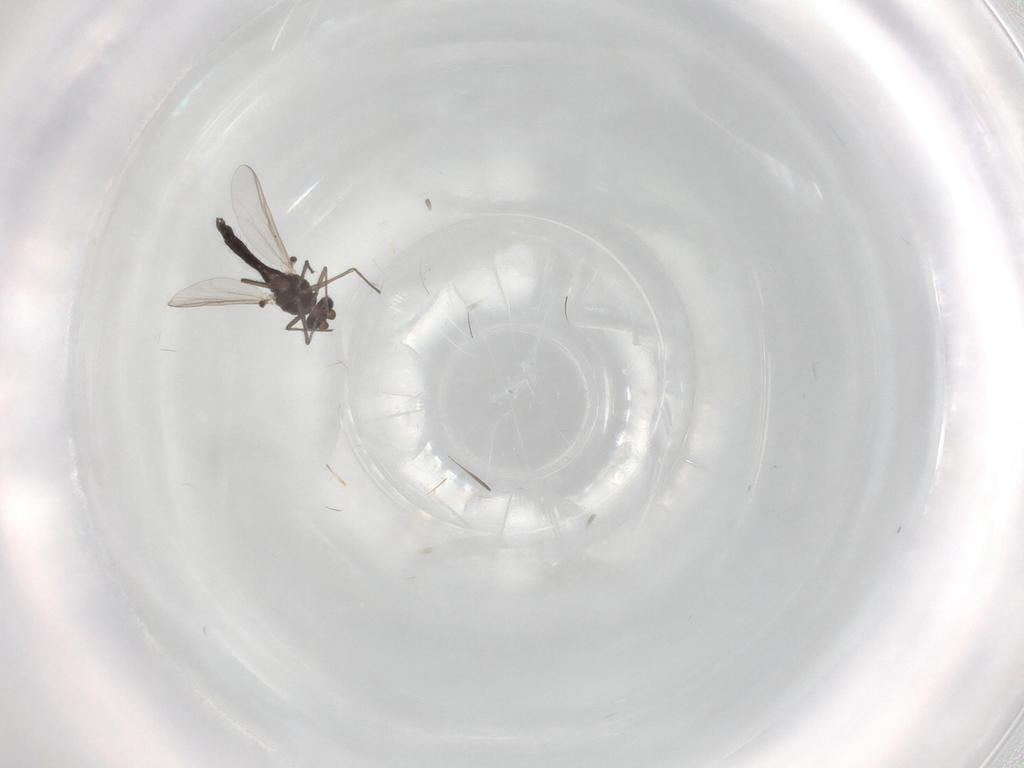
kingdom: Animalia
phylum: Arthropoda
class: Insecta
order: Diptera
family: Chironomidae
